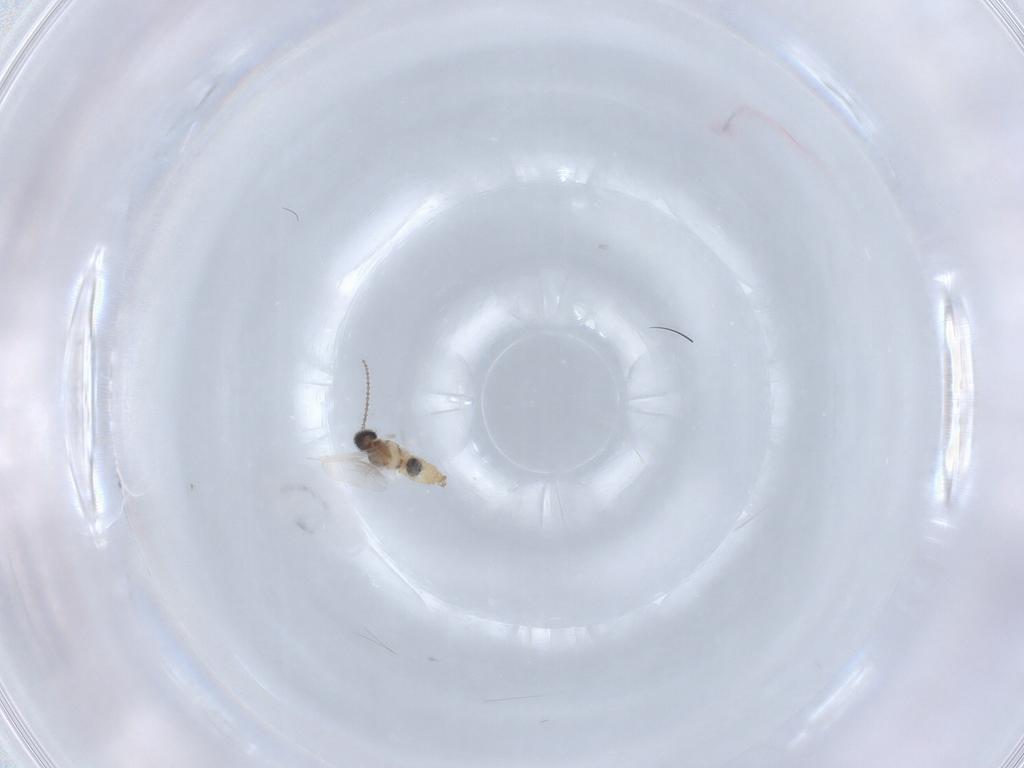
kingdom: Animalia
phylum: Arthropoda
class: Insecta
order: Diptera
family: Cecidomyiidae
